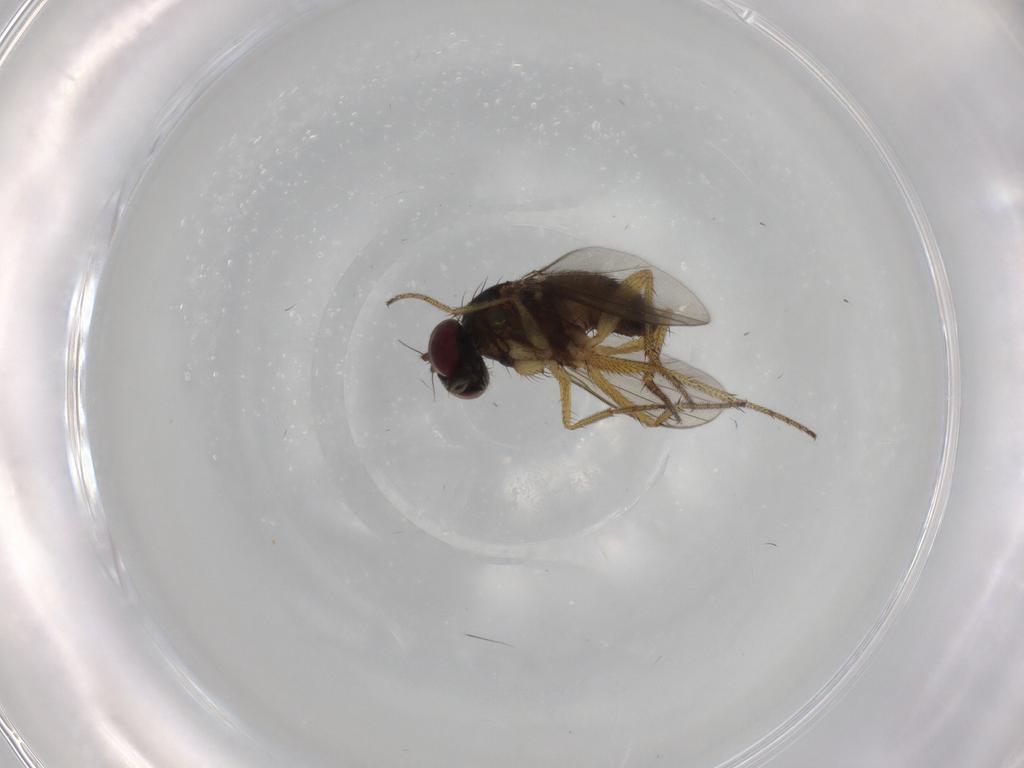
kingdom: Animalia
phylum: Arthropoda
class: Insecta
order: Diptera
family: Dolichopodidae
